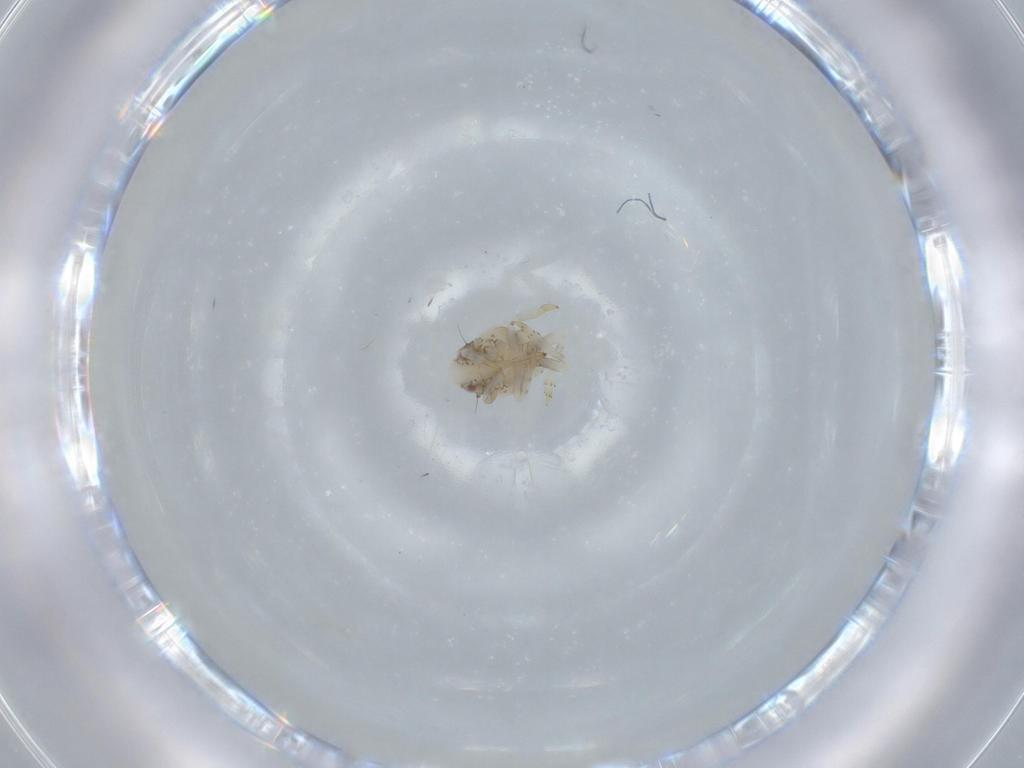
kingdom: Animalia
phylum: Arthropoda
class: Insecta
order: Hemiptera
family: Acanaloniidae
